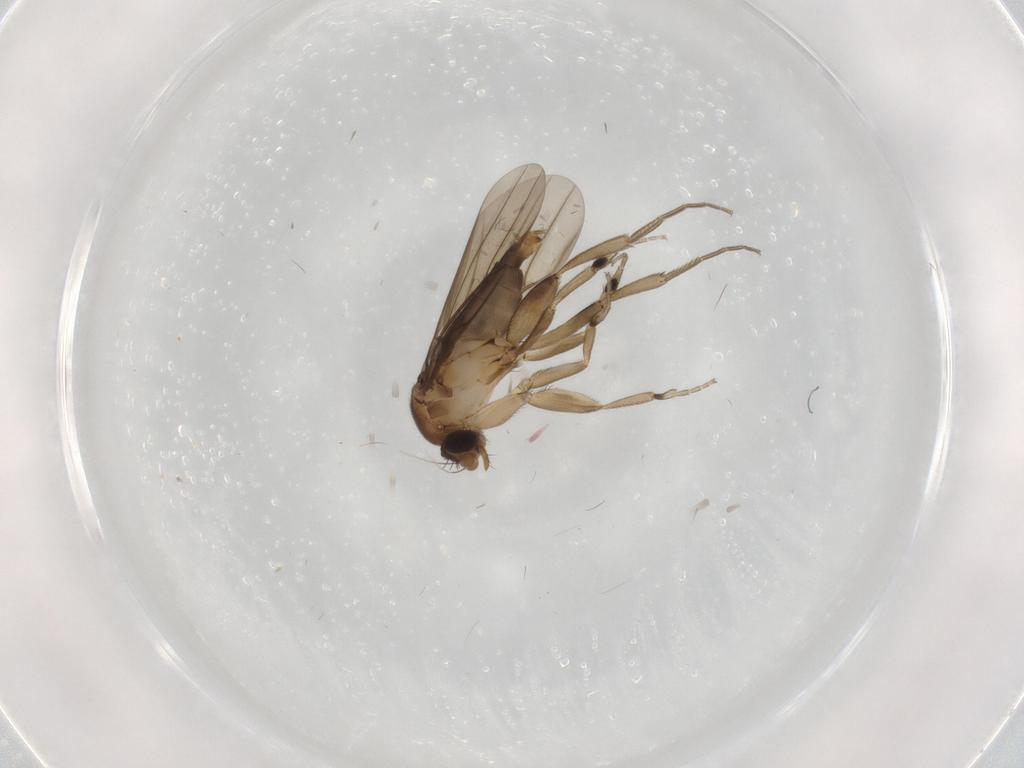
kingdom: Animalia
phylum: Arthropoda
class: Insecta
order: Diptera
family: Phoridae
